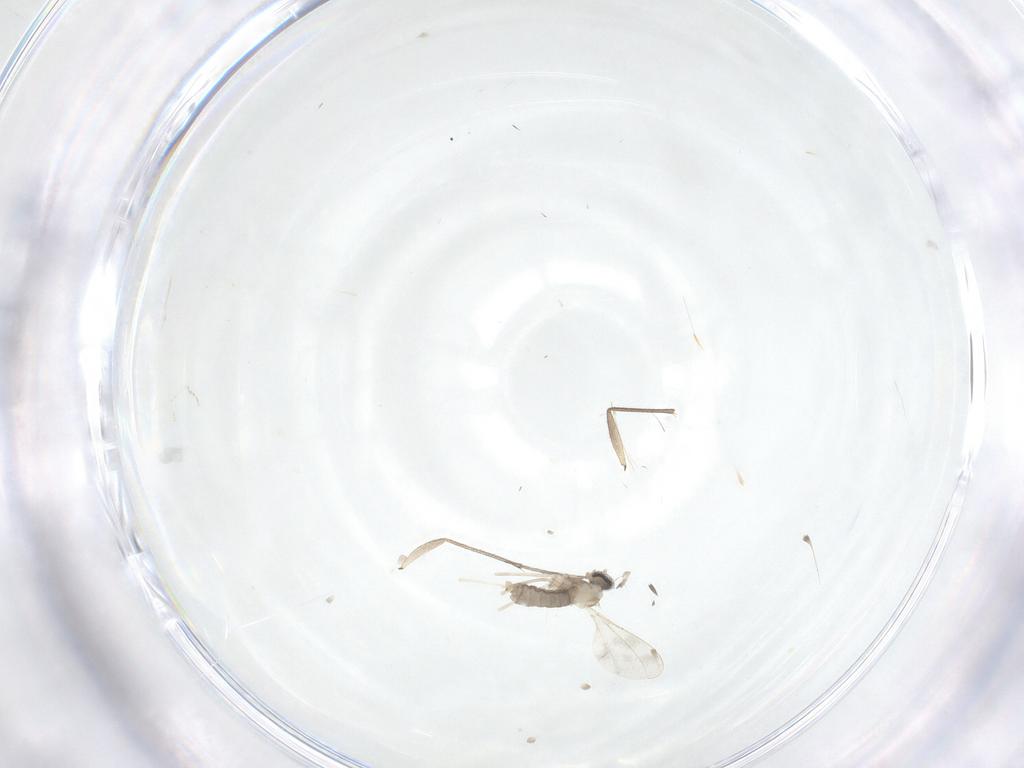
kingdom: Animalia
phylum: Arthropoda
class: Insecta
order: Diptera
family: Cecidomyiidae
